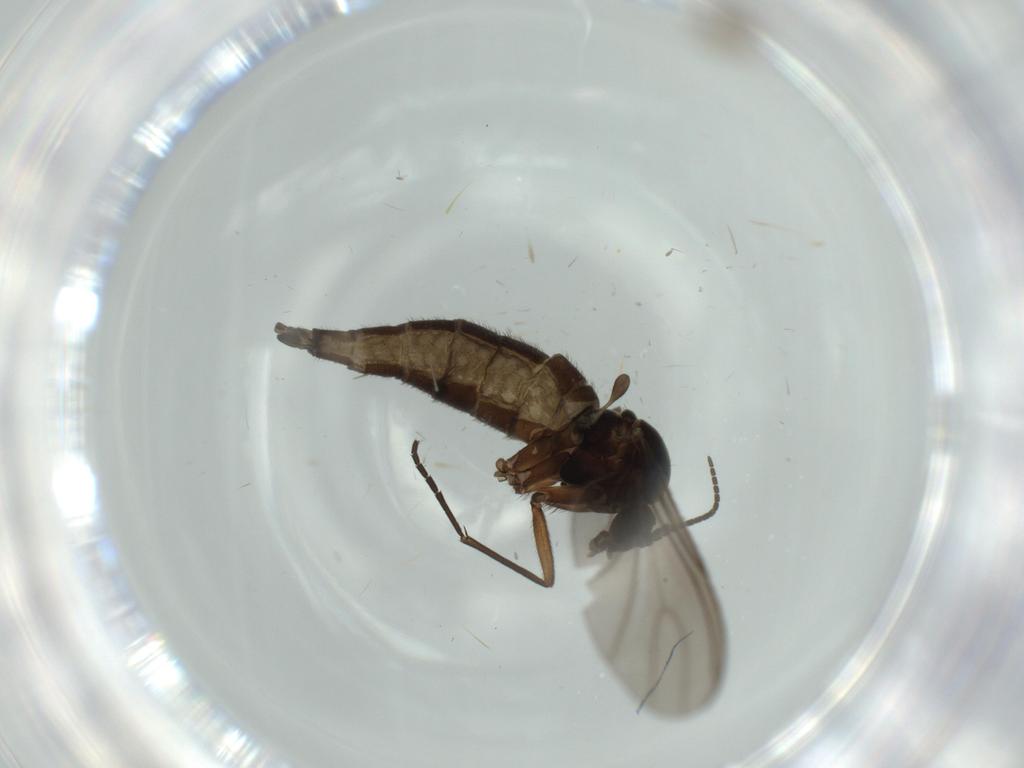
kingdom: Animalia
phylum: Arthropoda
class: Insecta
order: Diptera
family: Sciaridae
